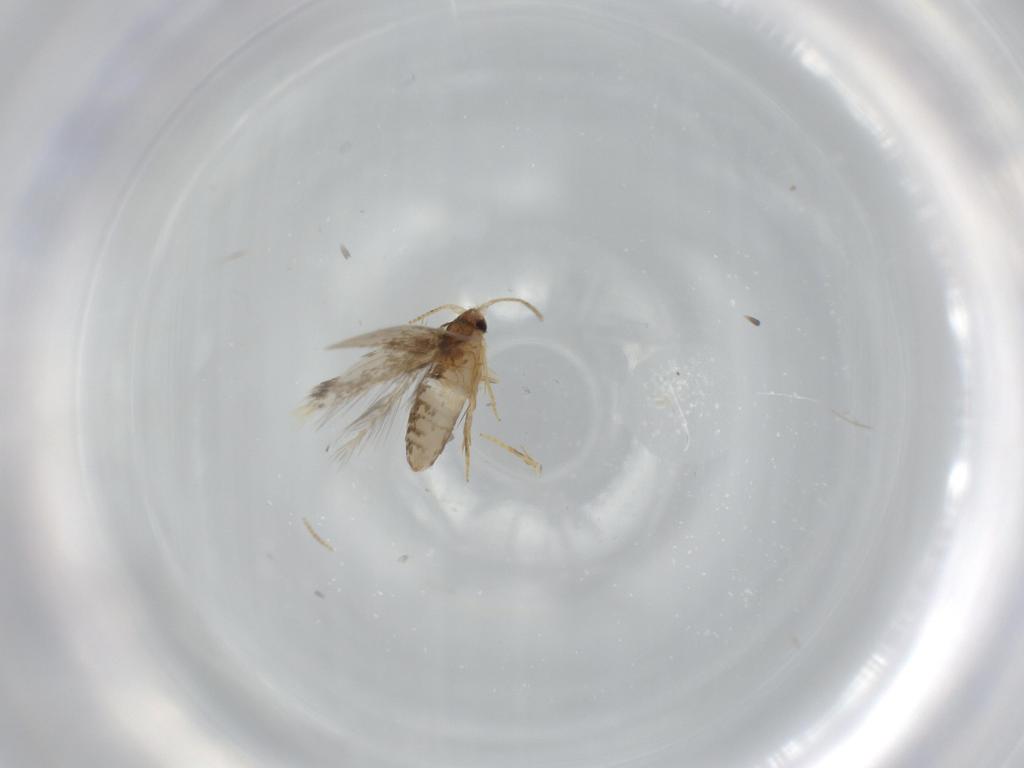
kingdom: Animalia
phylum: Arthropoda
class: Insecta
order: Lepidoptera
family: Nepticulidae
